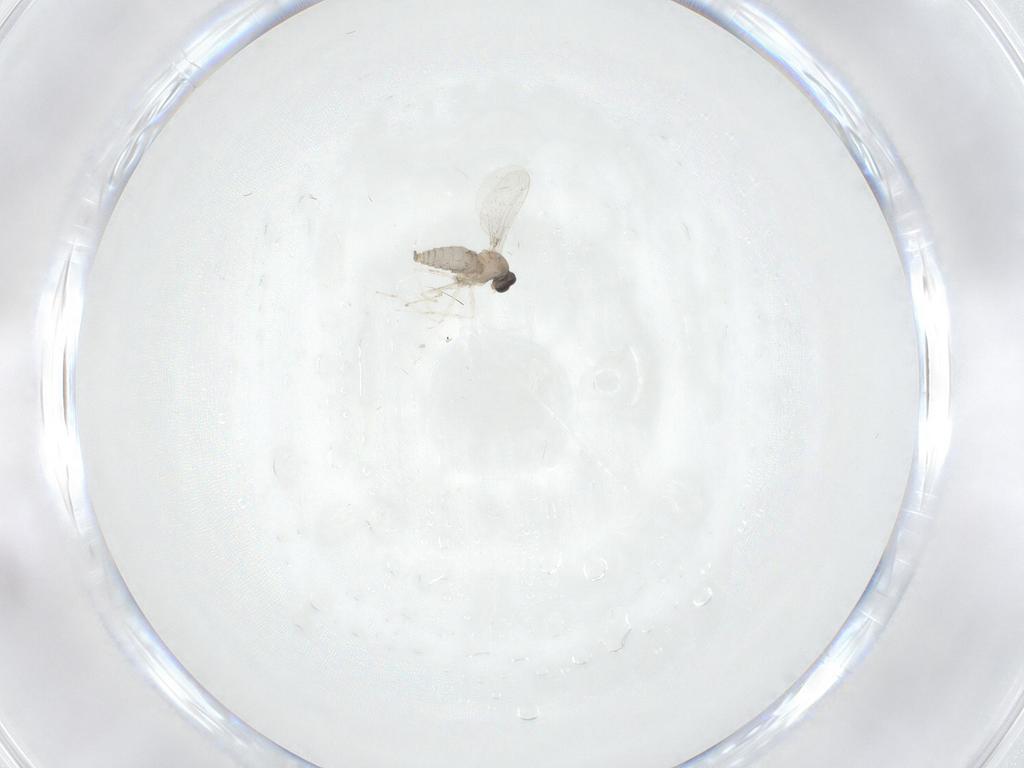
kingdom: Animalia
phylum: Arthropoda
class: Insecta
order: Diptera
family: Cecidomyiidae
